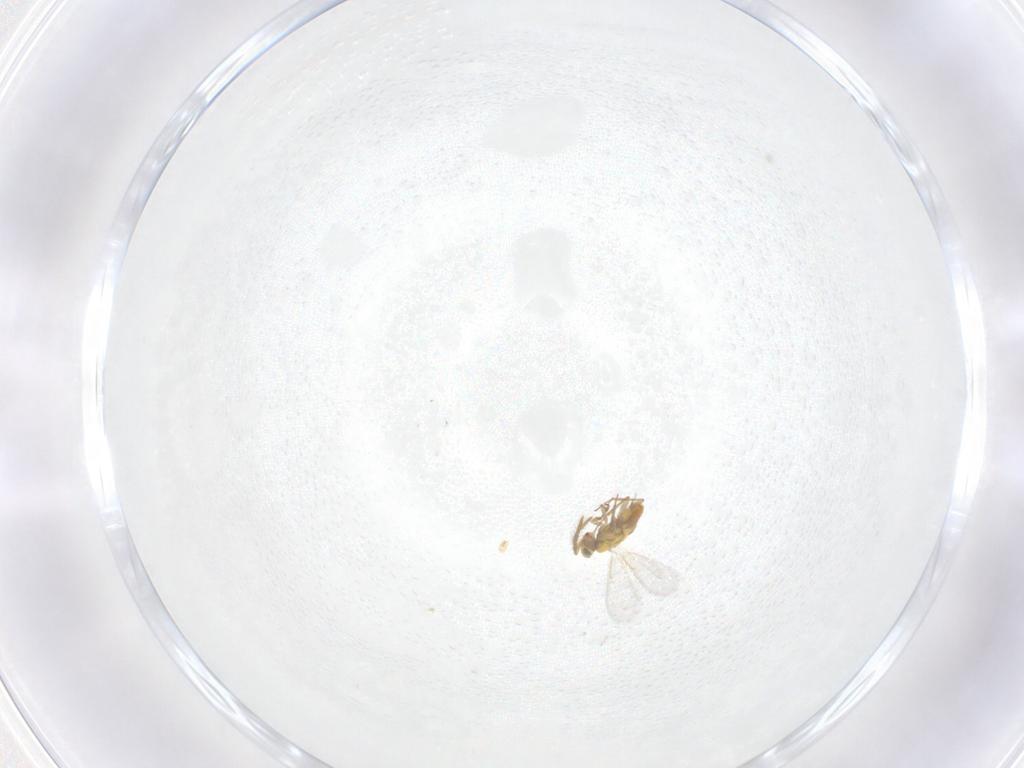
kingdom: Animalia
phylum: Arthropoda
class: Insecta
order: Hymenoptera
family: Aphelinidae
